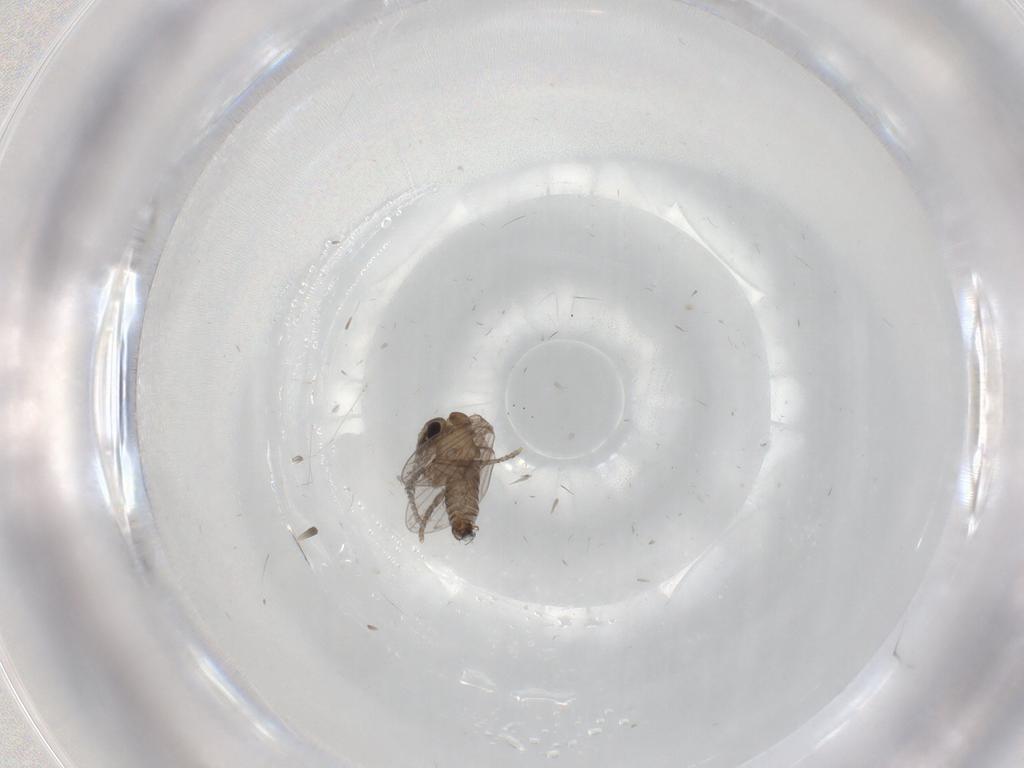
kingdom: Animalia
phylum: Arthropoda
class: Insecta
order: Diptera
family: Cecidomyiidae
